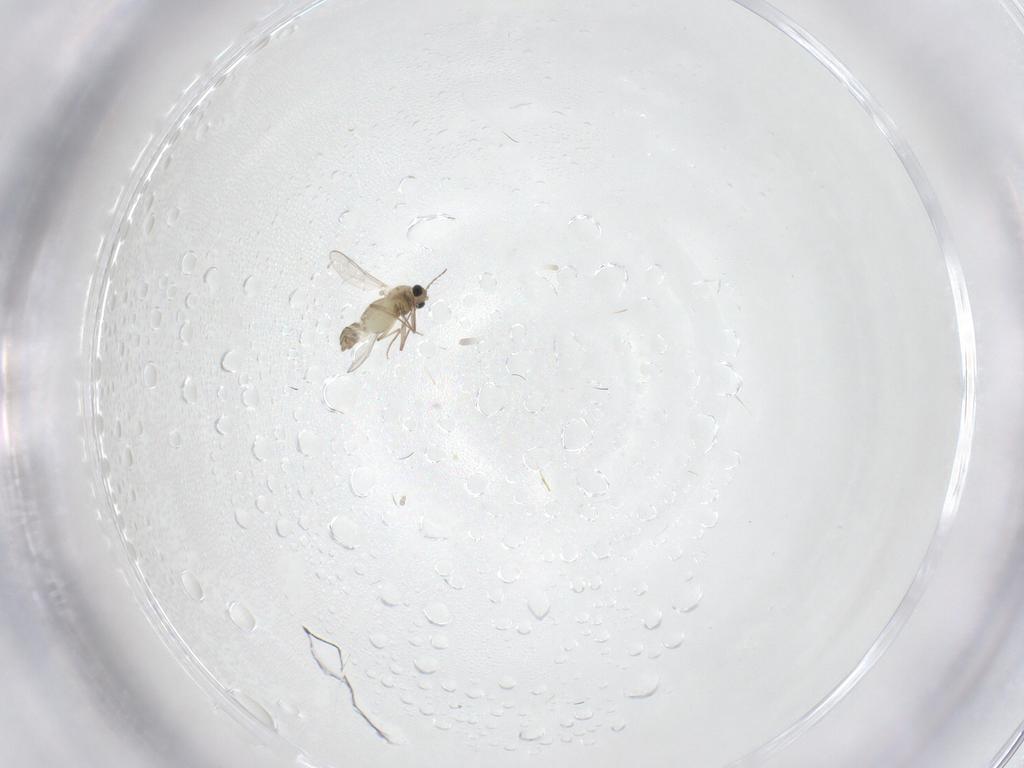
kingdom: Animalia
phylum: Arthropoda
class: Insecta
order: Diptera
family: Chironomidae
